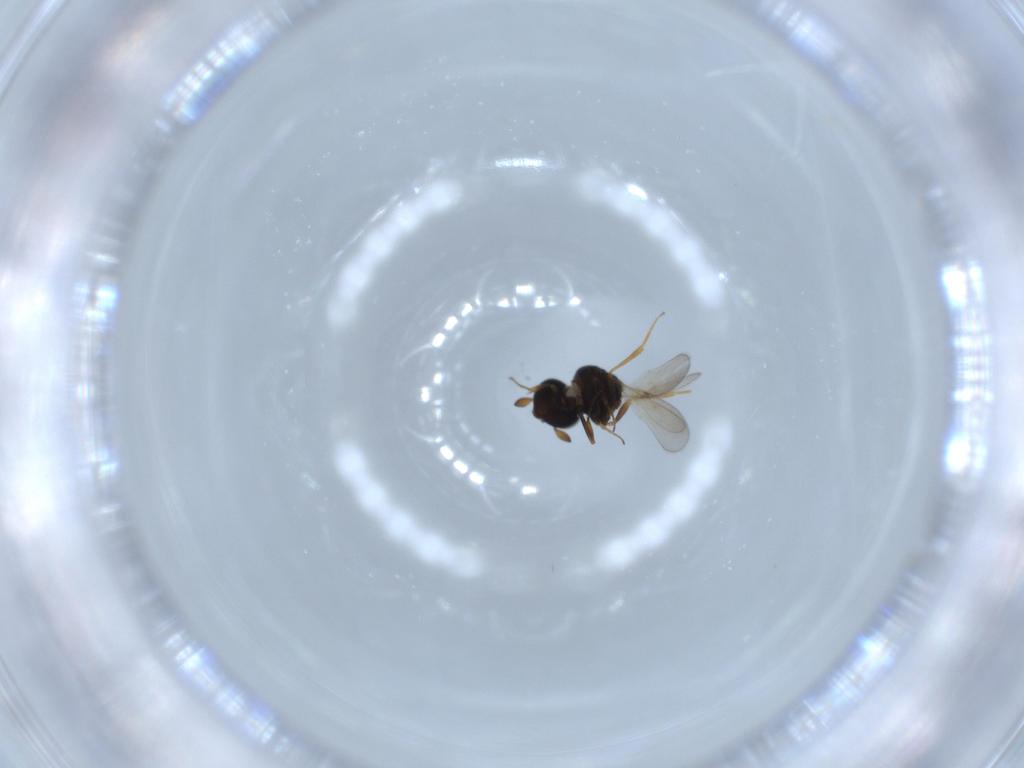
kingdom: Animalia
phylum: Arthropoda
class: Insecta
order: Hymenoptera
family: Scelionidae
